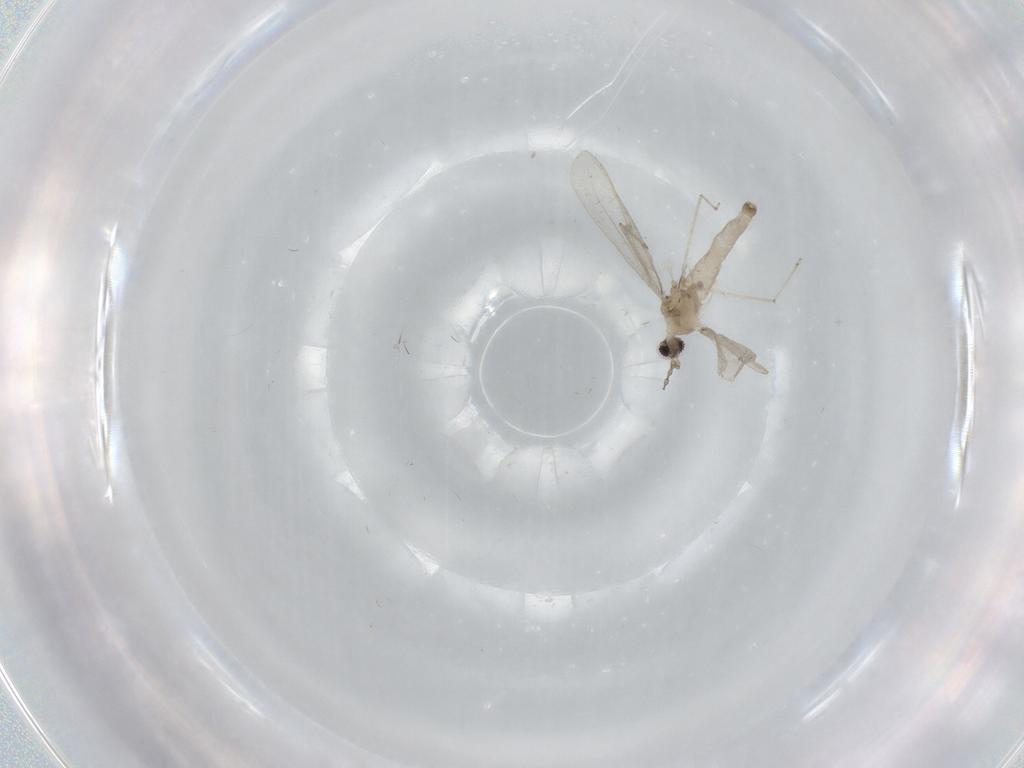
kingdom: Animalia
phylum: Arthropoda
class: Insecta
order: Diptera
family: Cecidomyiidae
